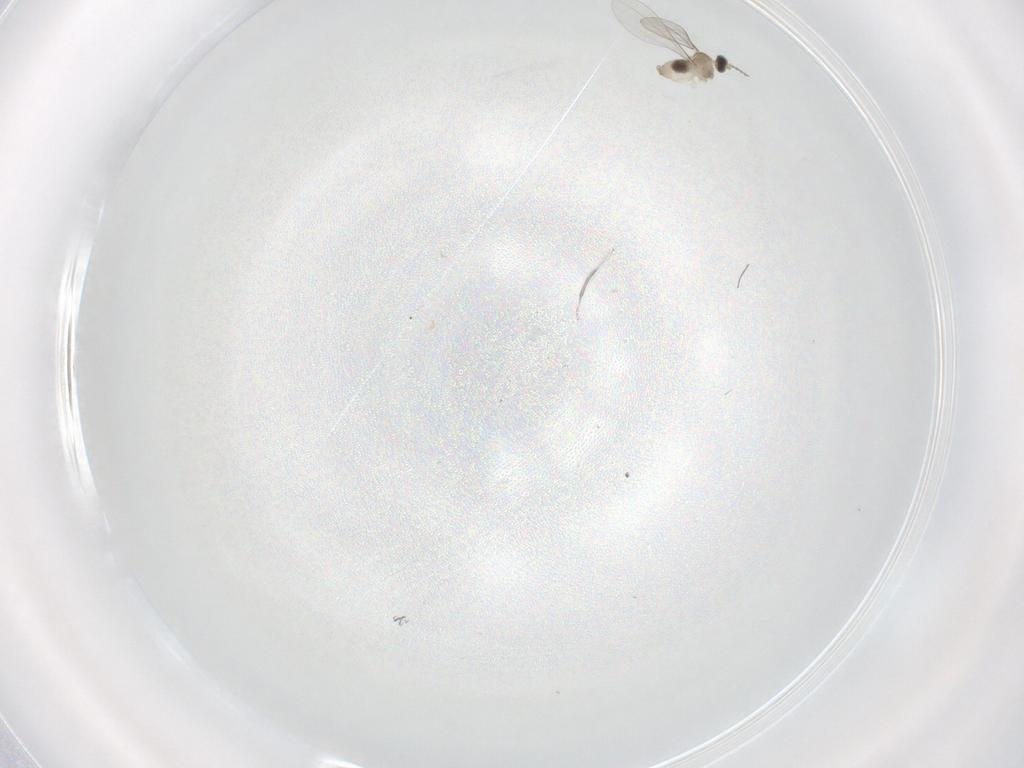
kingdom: Animalia
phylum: Arthropoda
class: Insecta
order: Diptera
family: Cecidomyiidae
